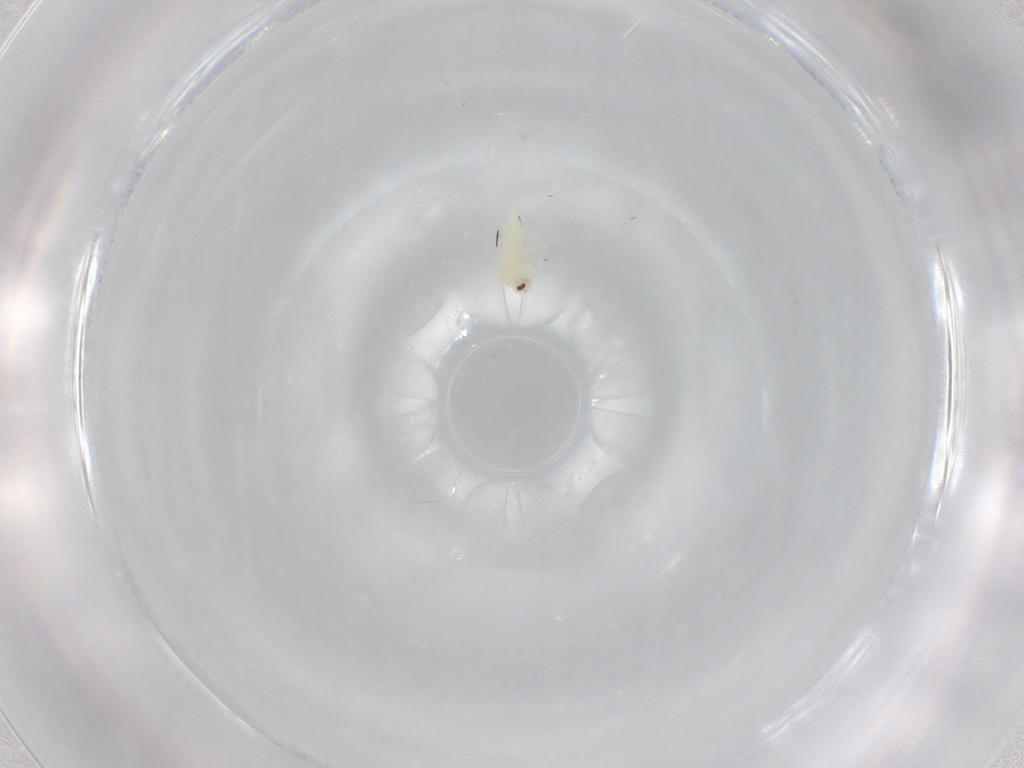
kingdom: Animalia
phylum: Arthropoda
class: Insecta
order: Hemiptera
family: Aleyrodidae
